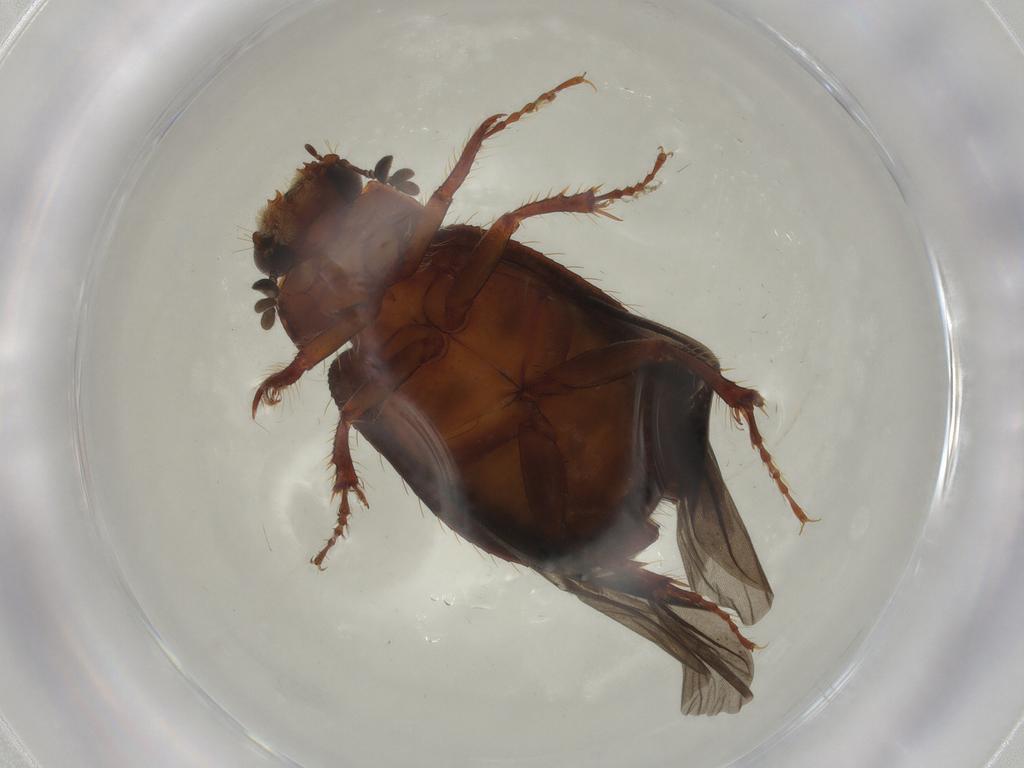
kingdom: Animalia
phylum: Arthropoda
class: Insecta
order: Coleoptera
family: Hybosoridae
